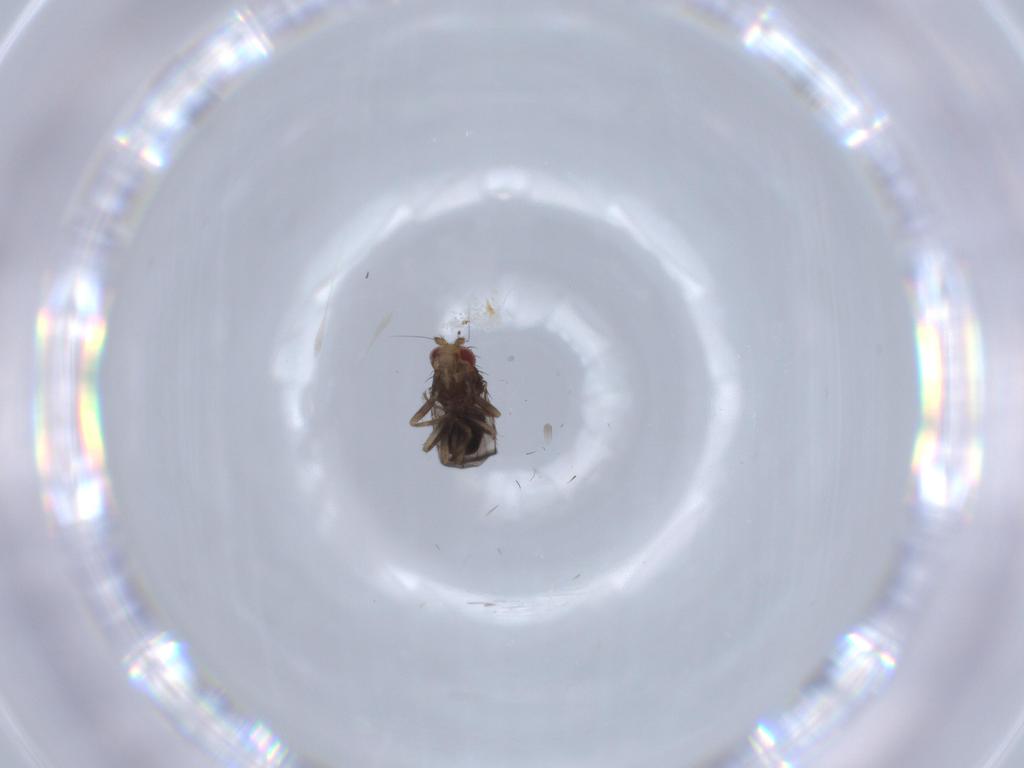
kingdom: Animalia
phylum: Arthropoda
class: Insecta
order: Diptera
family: Sphaeroceridae
